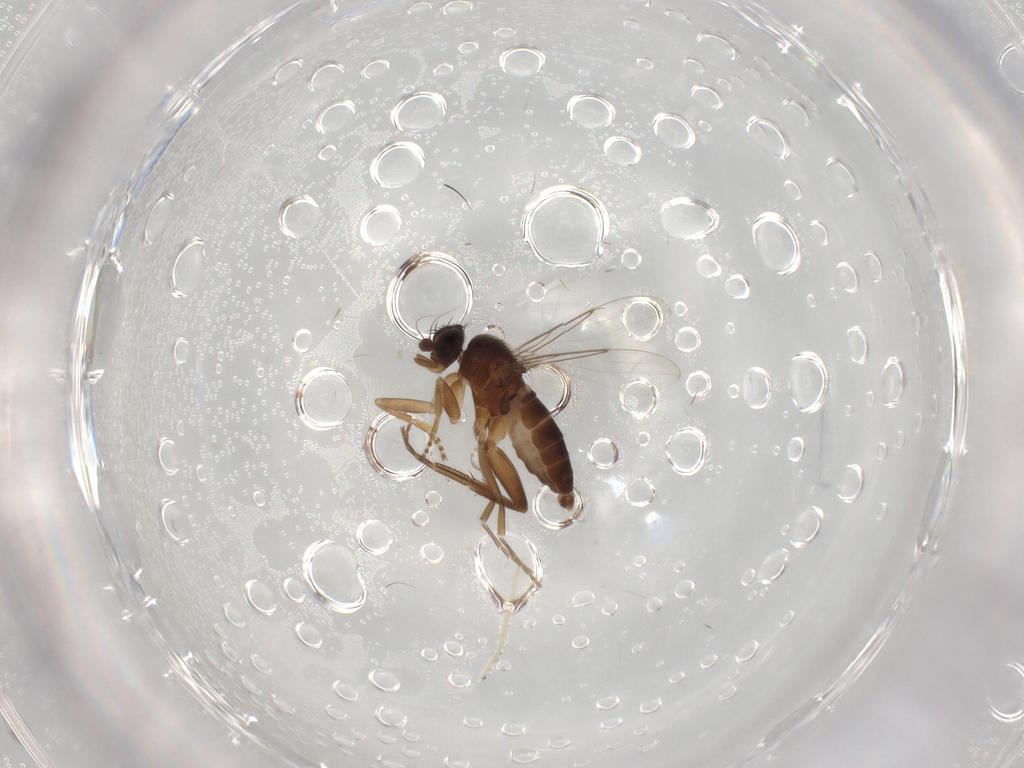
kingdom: Animalia
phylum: Arthropoda
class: Insecta
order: Diptera
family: Phoridae
